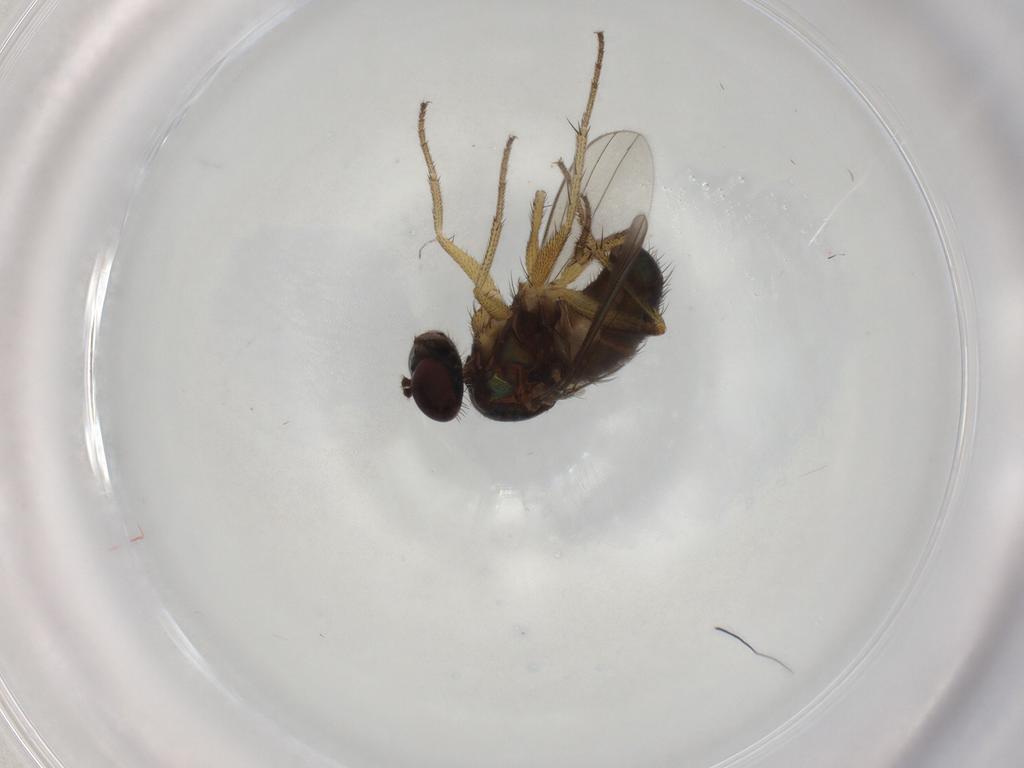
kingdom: Animalia
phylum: Arthropoda
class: Insecta
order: Diptera
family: Dolichopodidae
